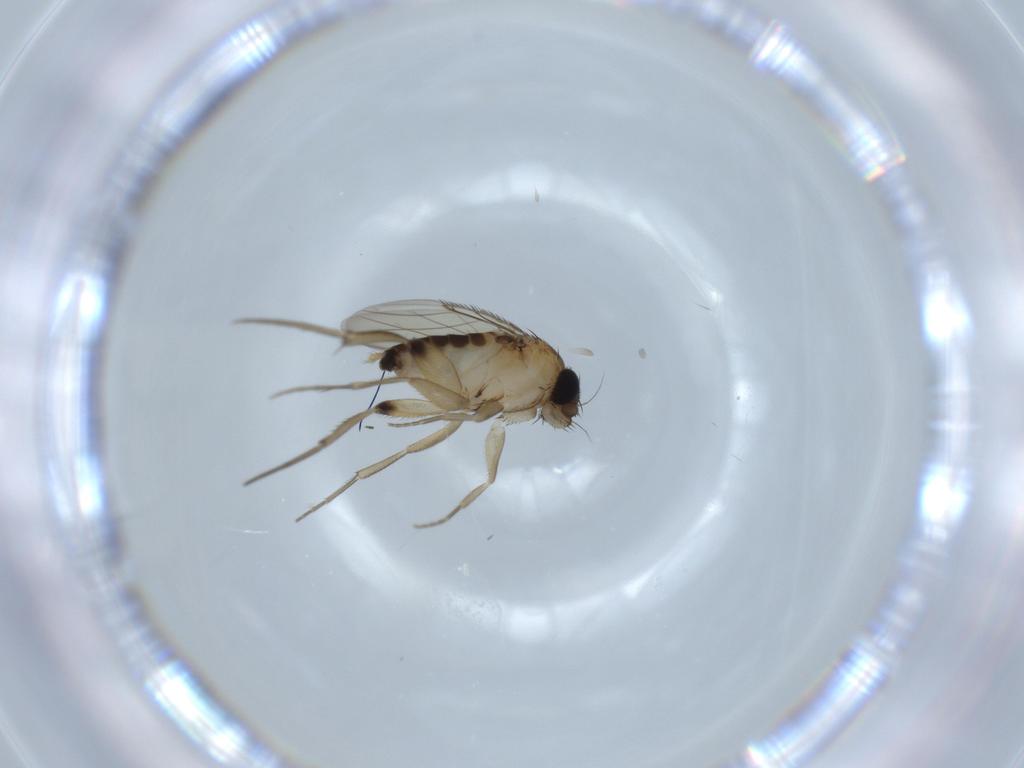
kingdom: Animalia
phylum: Arthropoda
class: Insecta
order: Diptera
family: Phoridae
